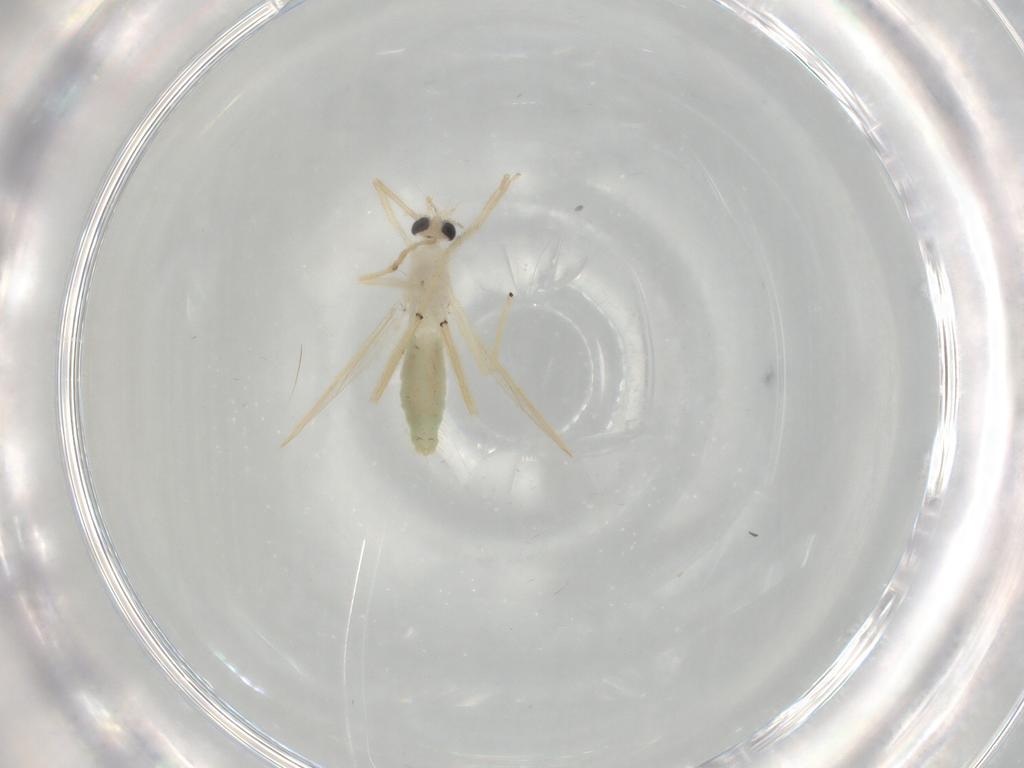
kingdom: Animalia
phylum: Arthropoda
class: Insecta
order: Diptera
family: Chironomidae
